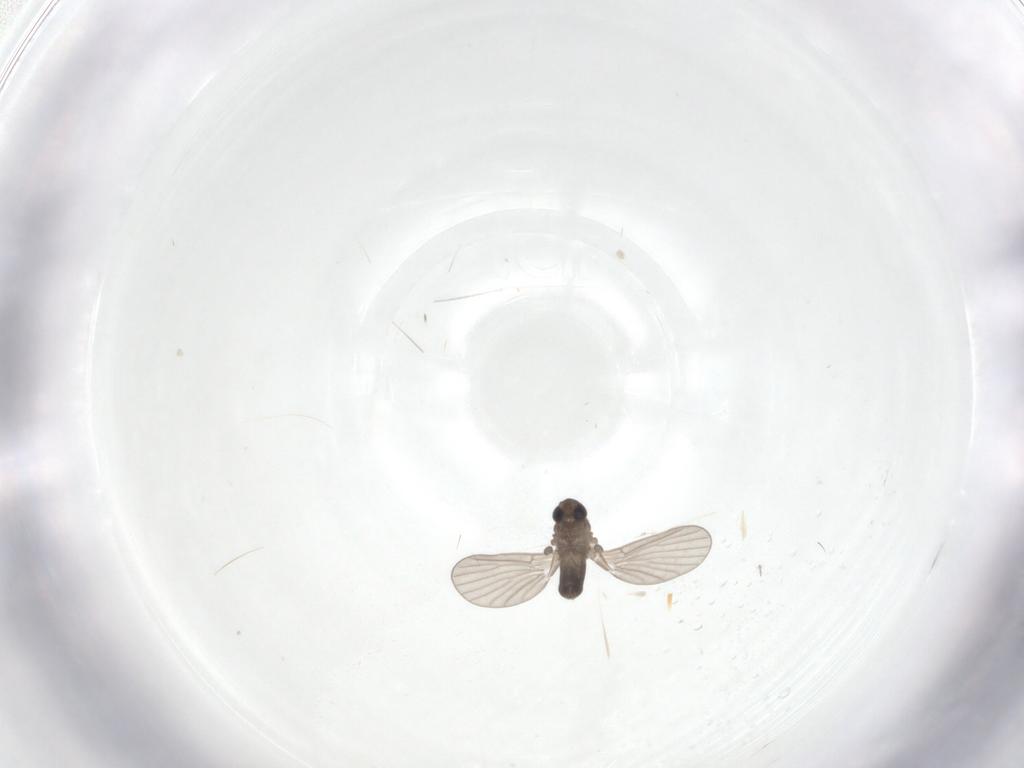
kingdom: Animalia
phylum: Arthropoda
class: Insecta
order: Diptera
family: Psychodidae
